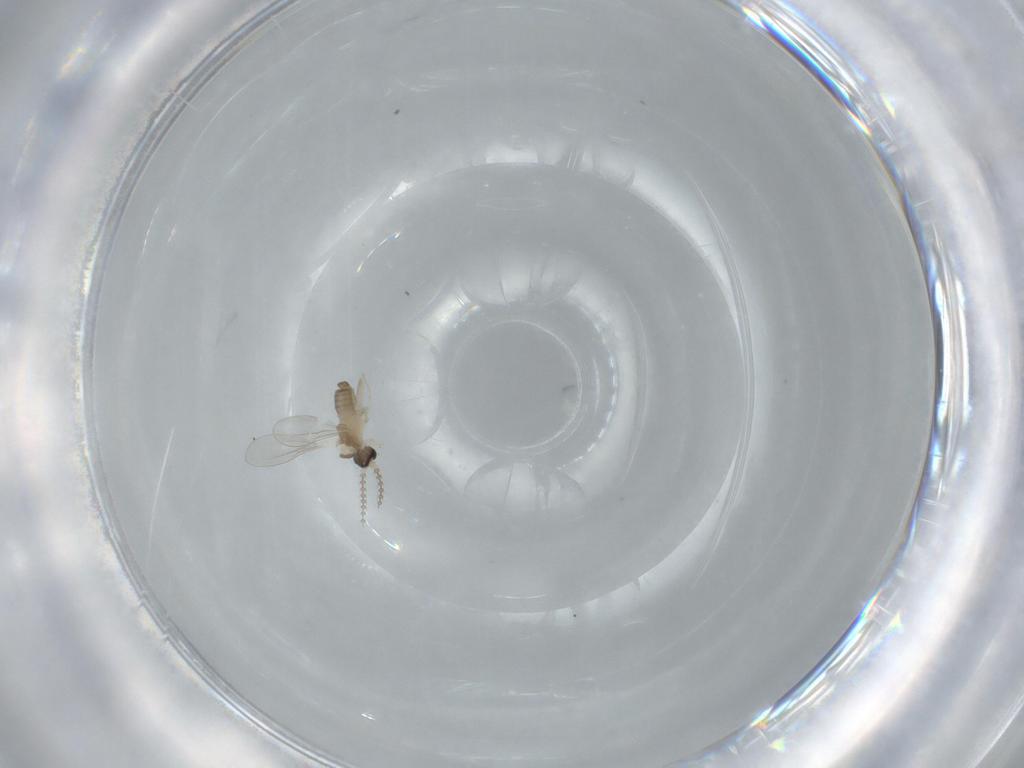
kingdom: Animalia
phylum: Arthropoda
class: Insecta
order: Diptera
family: Cecidomyiidae
